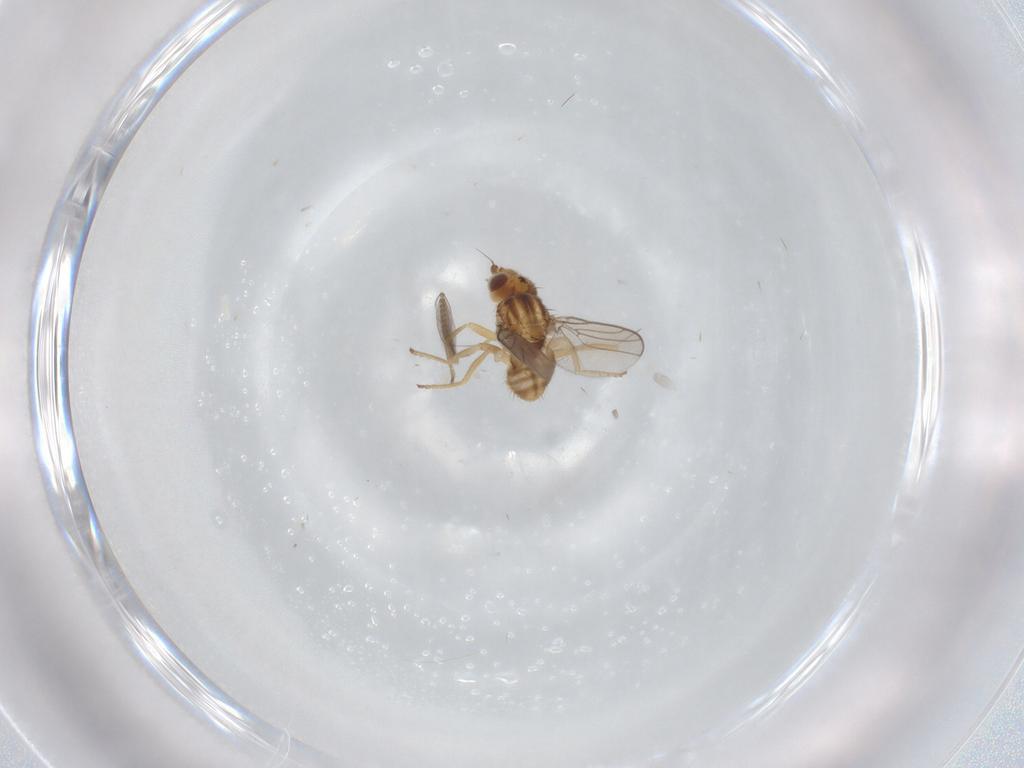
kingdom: Animalia
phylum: Arthropoda
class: Insecta
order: Diptera
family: Chloropidae
